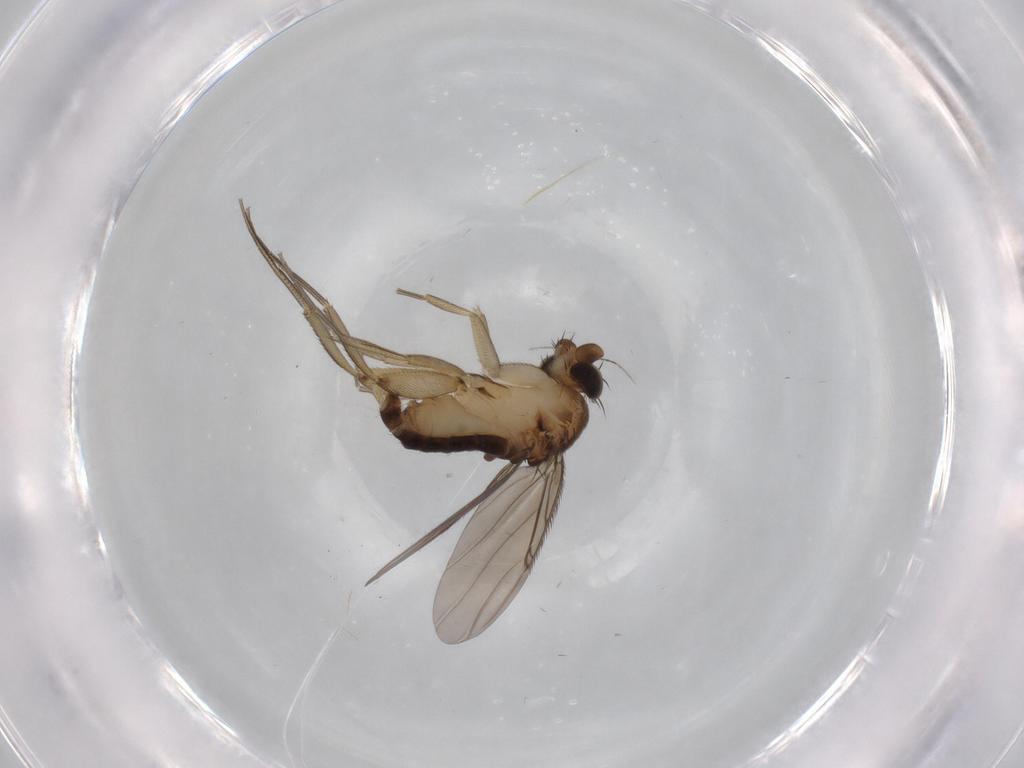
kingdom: Animalia
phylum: Arthropoda
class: Insecta
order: Diptera
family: Phoridae
